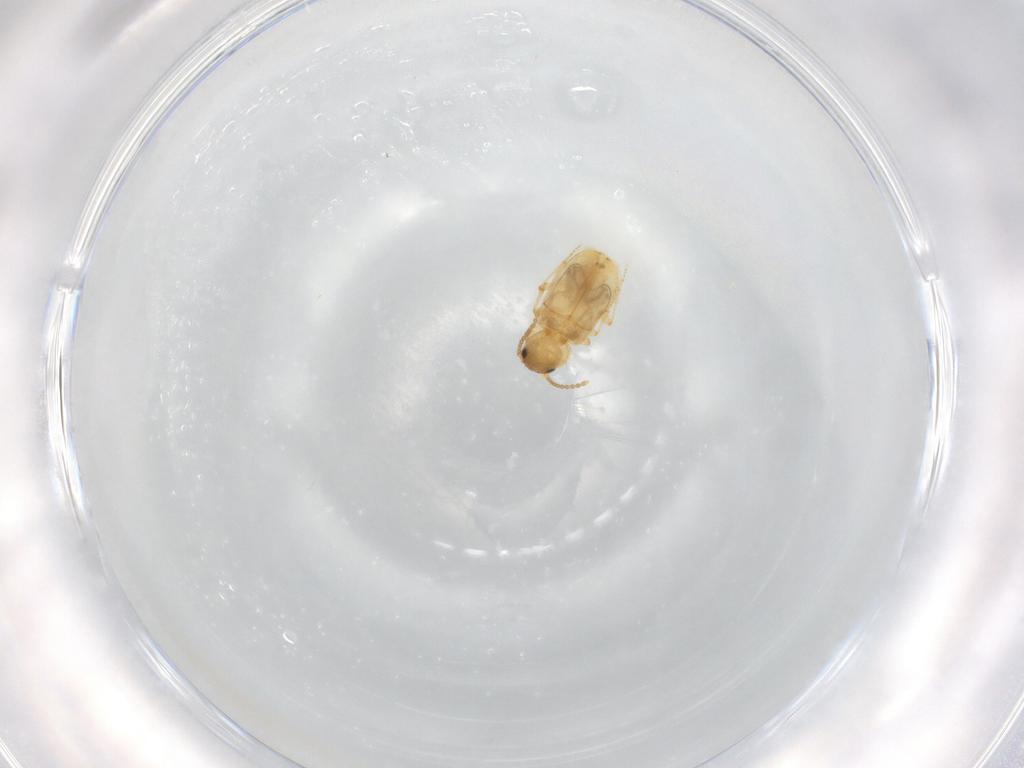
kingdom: Animalia
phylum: Arthropoda
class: Insecta
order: Coleoptera
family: Carabidae
